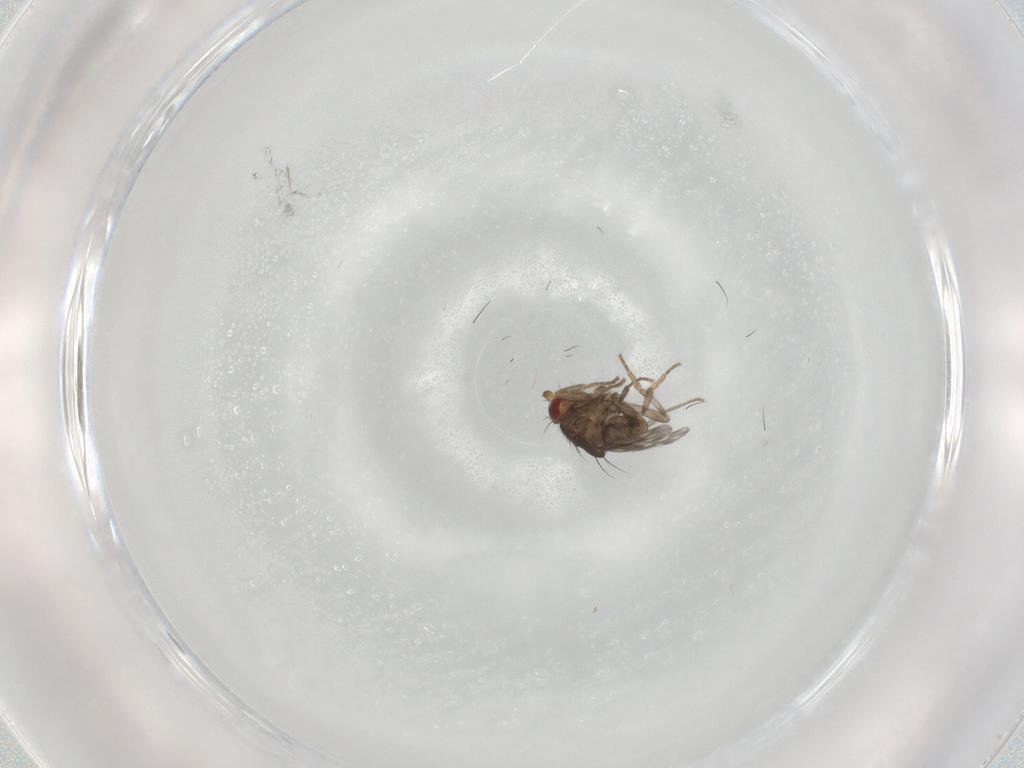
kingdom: Animalia
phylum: Arthropoda
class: Insecta
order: Diptera
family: Sphaeroceridae
